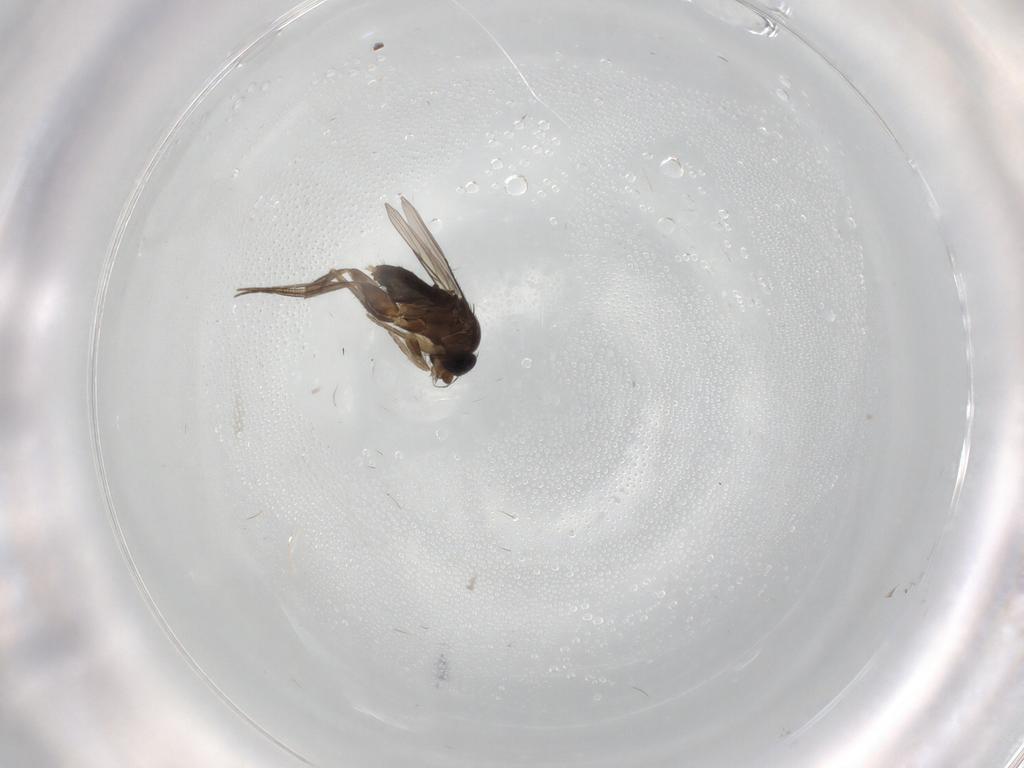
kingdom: Animalia
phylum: Arthropoda
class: Insecta
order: Diptera
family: Phoridae
